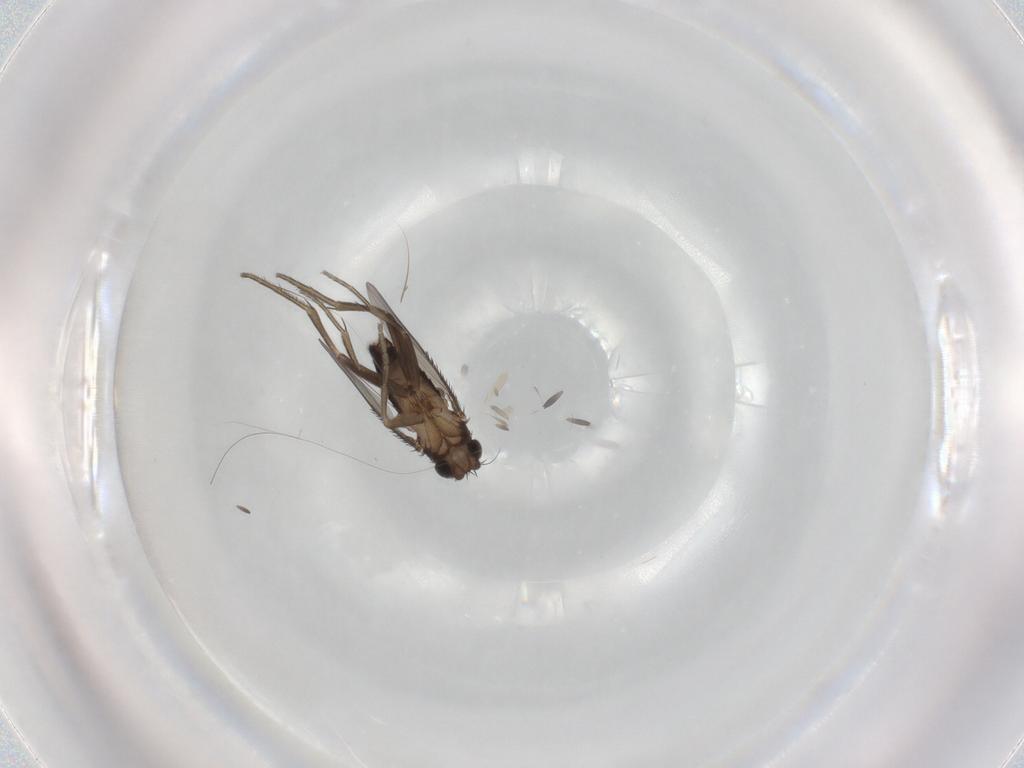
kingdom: Animalia
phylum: Arthropoda
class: Insecta
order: Diptera
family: Phoridae
